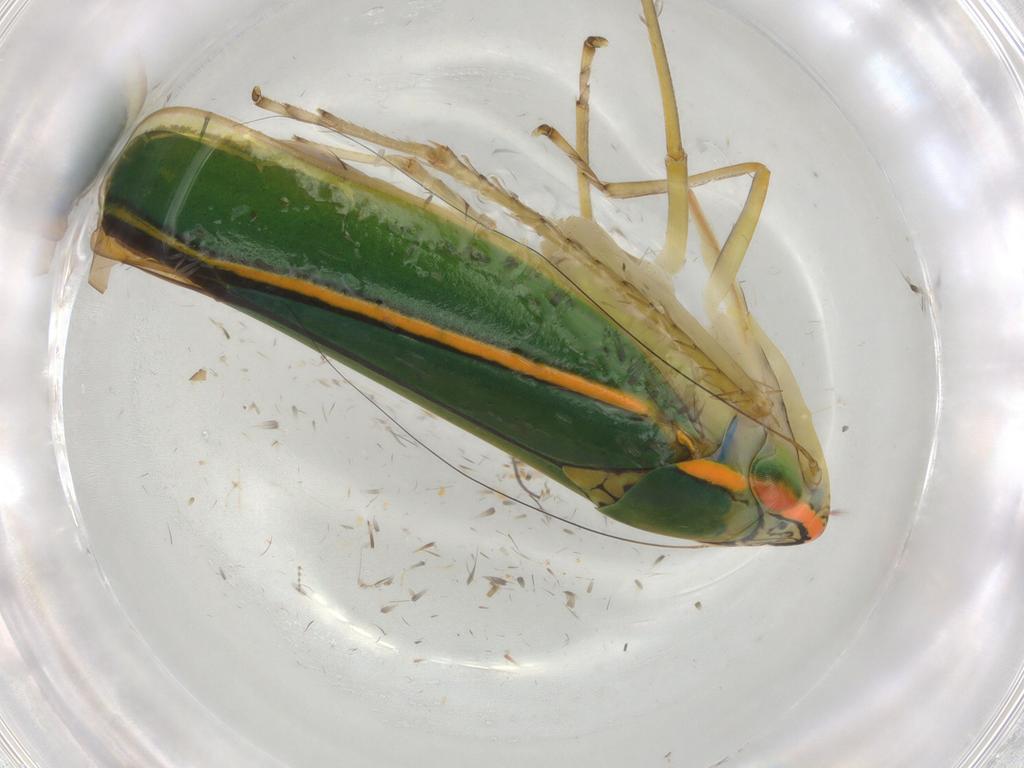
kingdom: Animalia
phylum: Arthropoda
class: Insecta
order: Hemiptera
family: Cicadellidae
